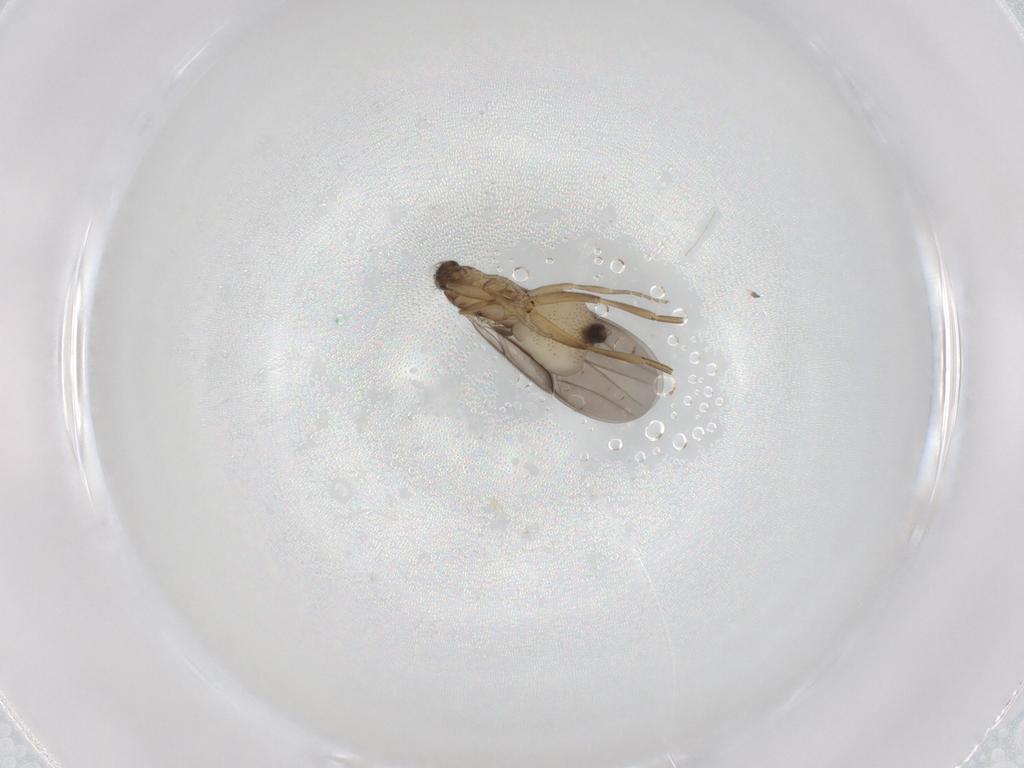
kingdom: Animalia
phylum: Arthropoda
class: Insecta
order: Diptera
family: Phoridae
